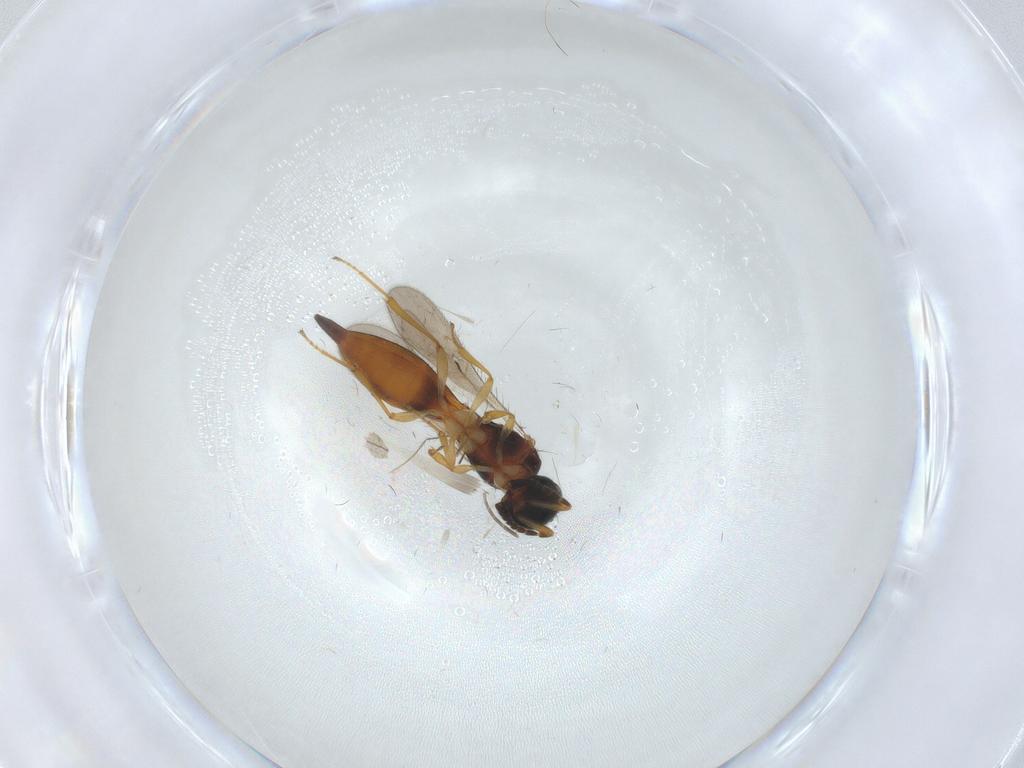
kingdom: Animalia
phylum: Arthropoda
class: Insecta
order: Hymenoptera
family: Scelionidae
